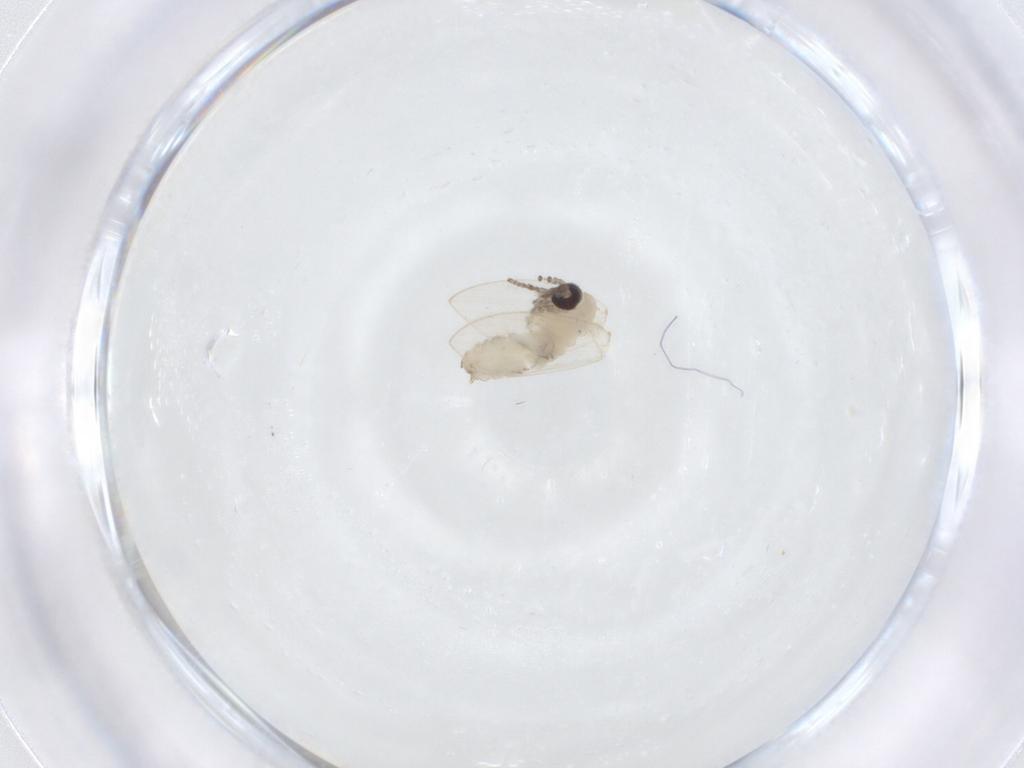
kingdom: Animalia
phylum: Arthropoda
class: Insecta
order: Diptera
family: Psychodidae
